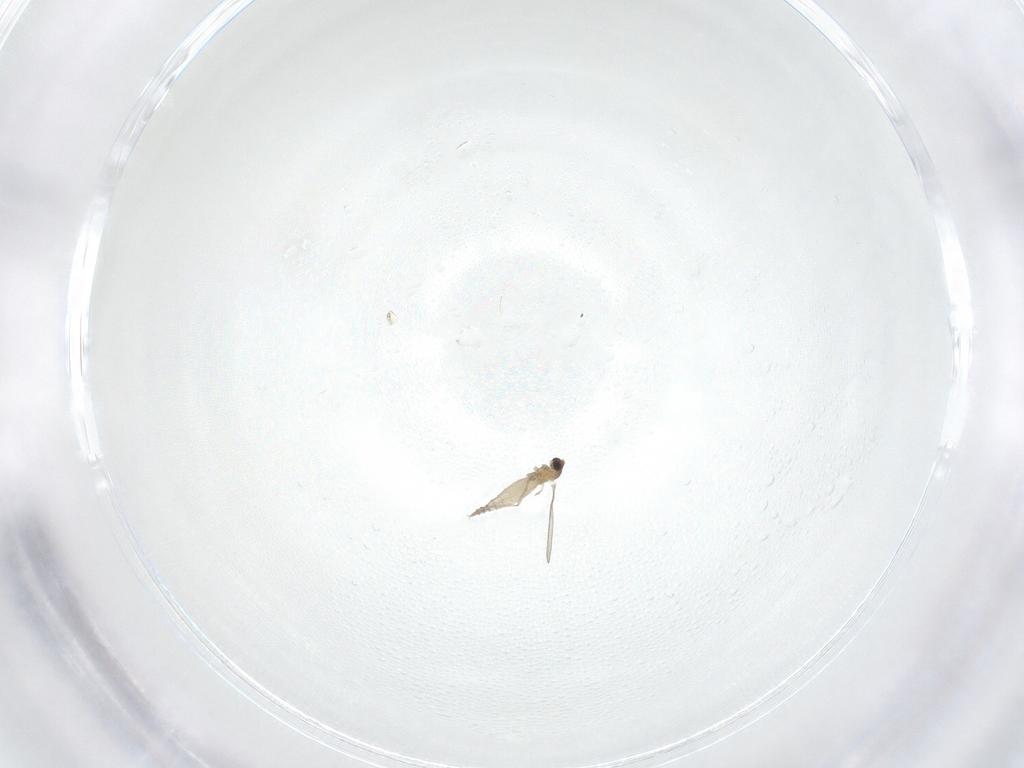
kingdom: Animalia
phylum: Arthropoda
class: Insecta
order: Diptera
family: Sciaridae
